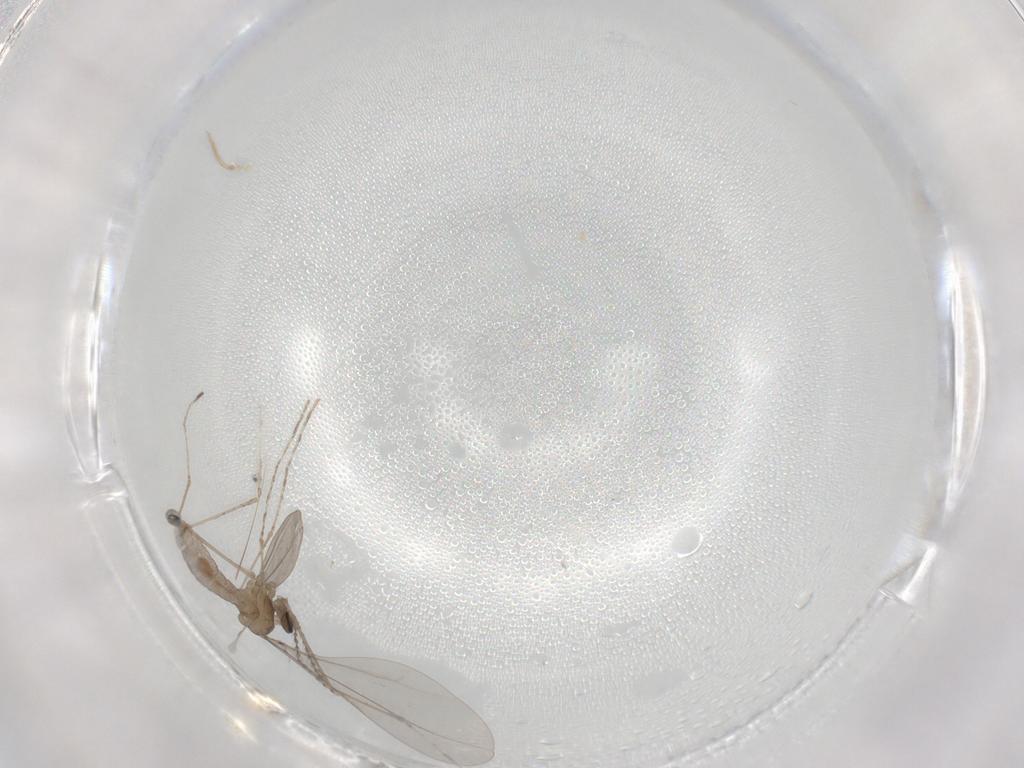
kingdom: Animalia
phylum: Arthropoda
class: Insecta
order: Diptera
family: Cecidomyiidae
